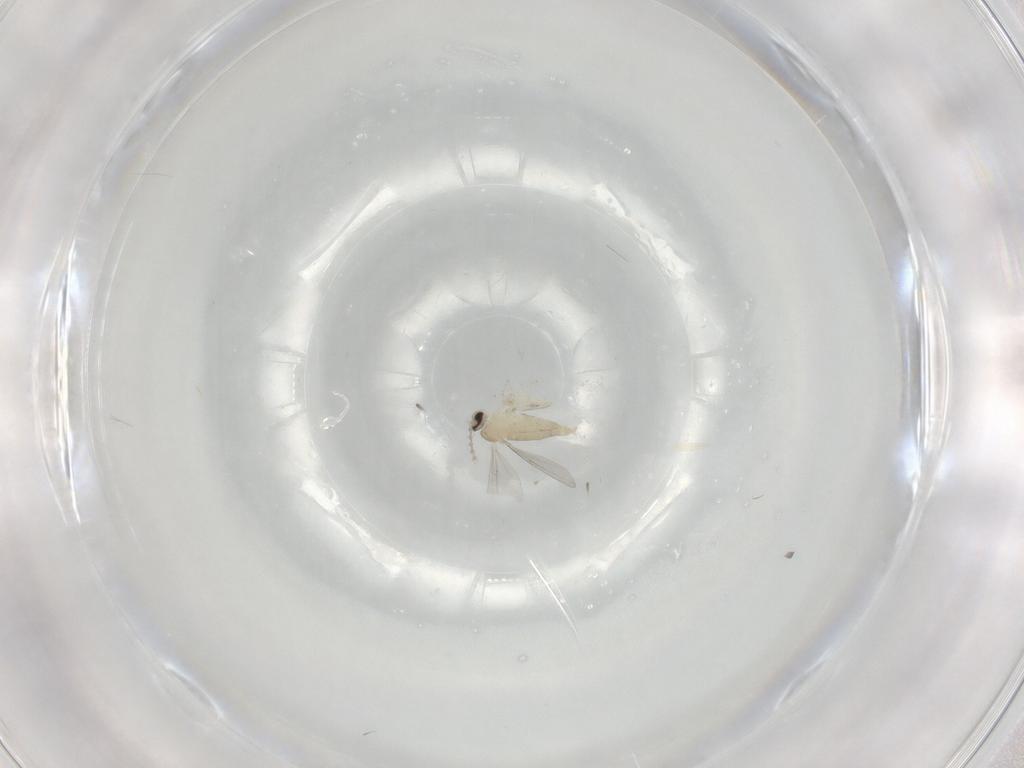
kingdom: Animalia
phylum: Arthropoda
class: Insecta
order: Diptera
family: Cecidomyiidae
